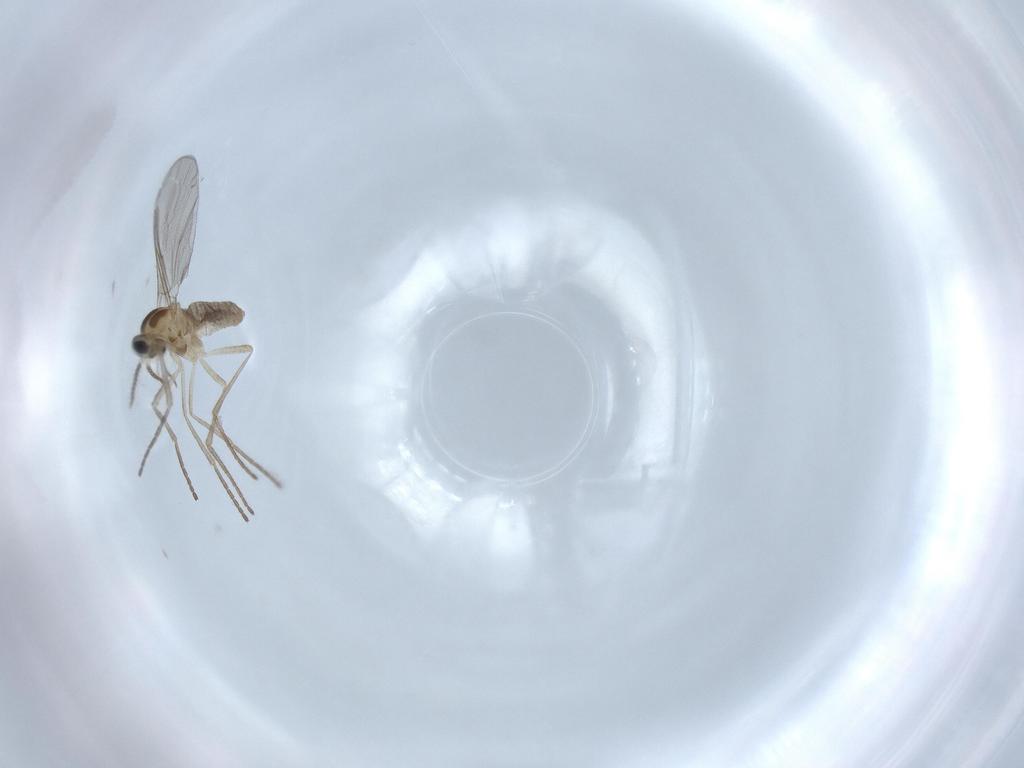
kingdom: Animalia
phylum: Arthropoda
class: Insecta
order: Diptera
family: Cecidomyiidae
